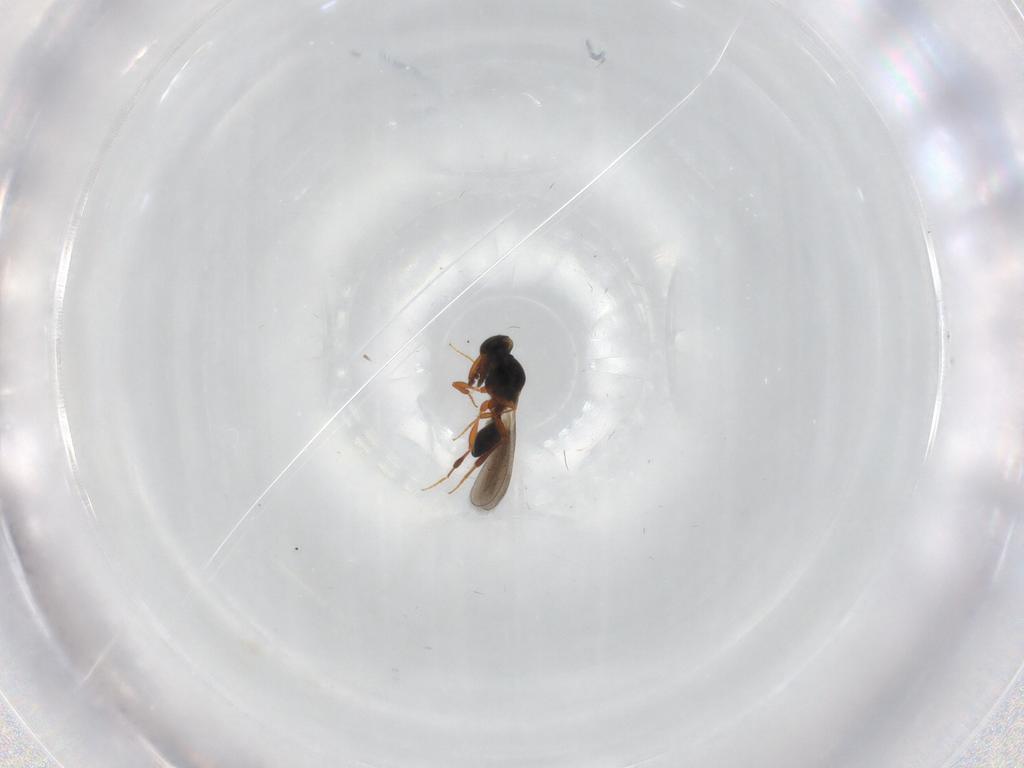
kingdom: Animalia
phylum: Arthropoda
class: Insecta
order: Hymenoptera
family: Platygastridae
